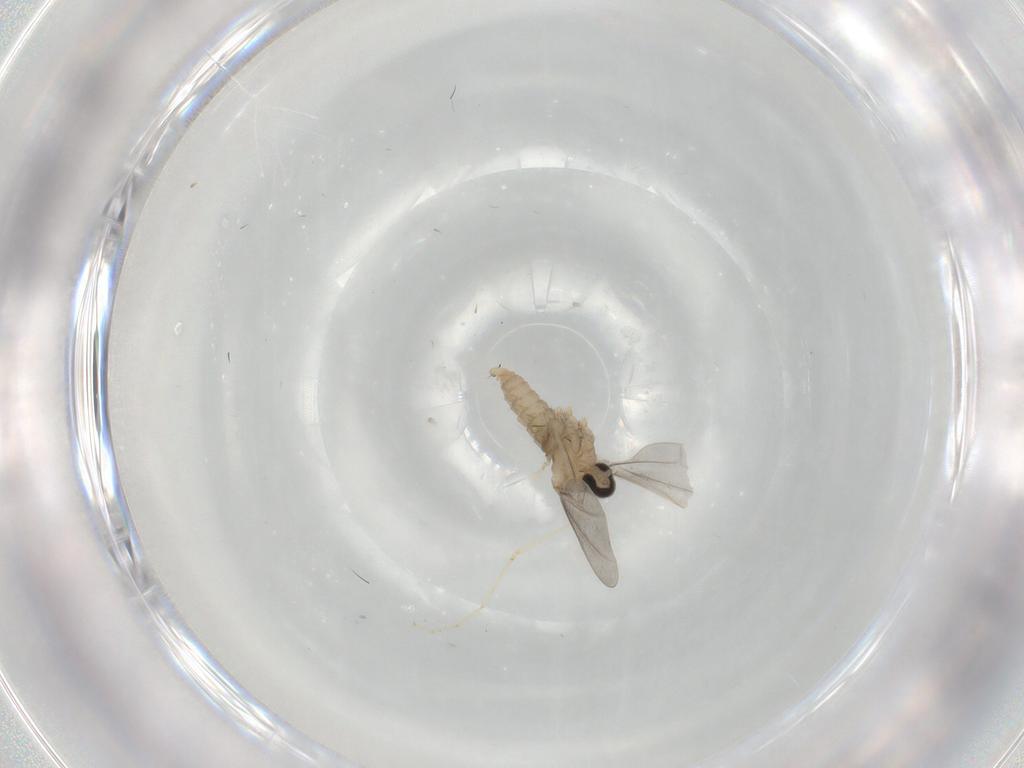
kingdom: Animalia
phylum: Arthropoda
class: Insecta
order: Diptera
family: Cecidomyiidae
